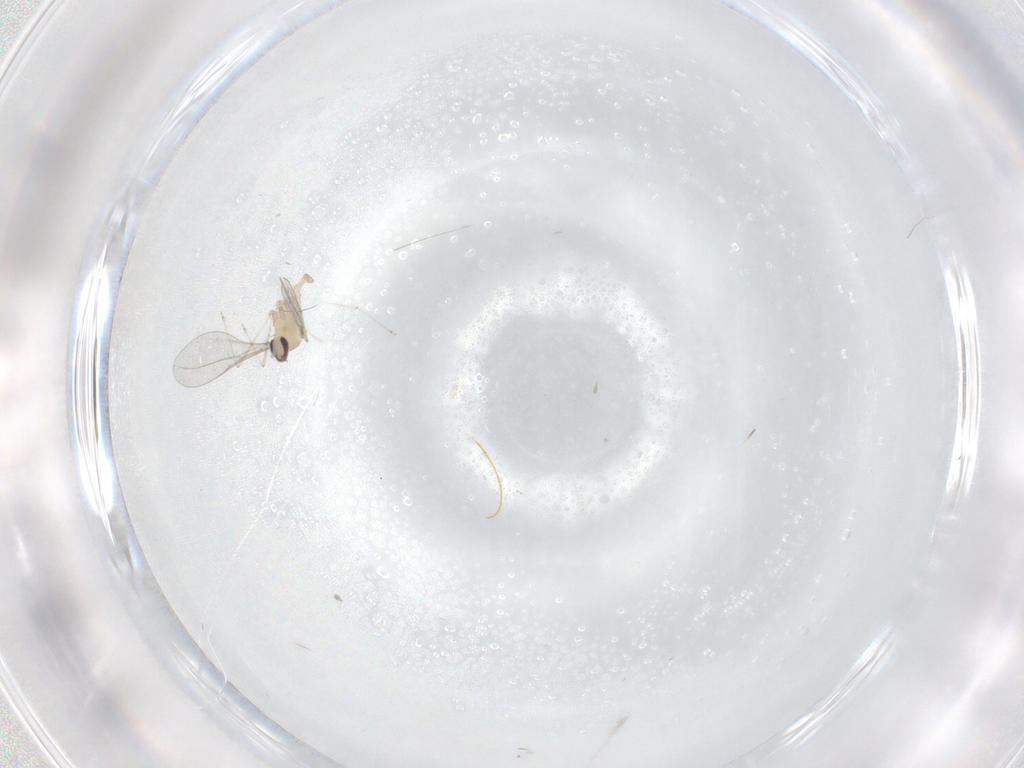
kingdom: Animalia
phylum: Arthropoda
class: Insecta
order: Diptera
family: Cecidomyiidae
